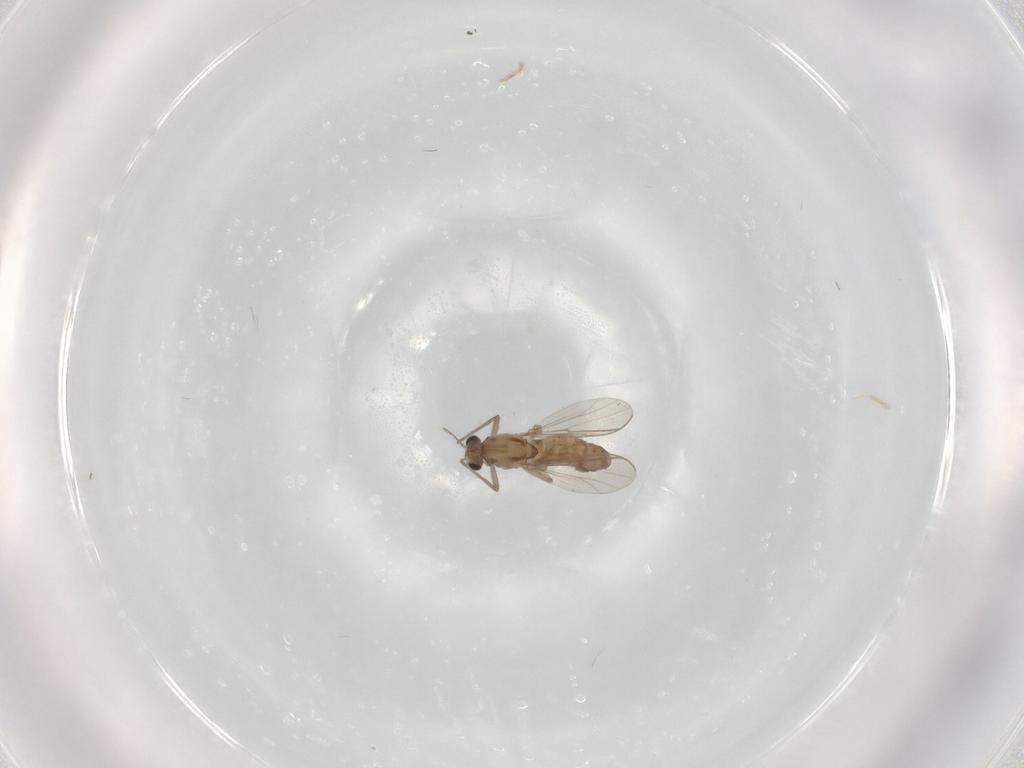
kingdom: Animalia
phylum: Arthropoda
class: Insecta
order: Diptera
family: Chironomidae
